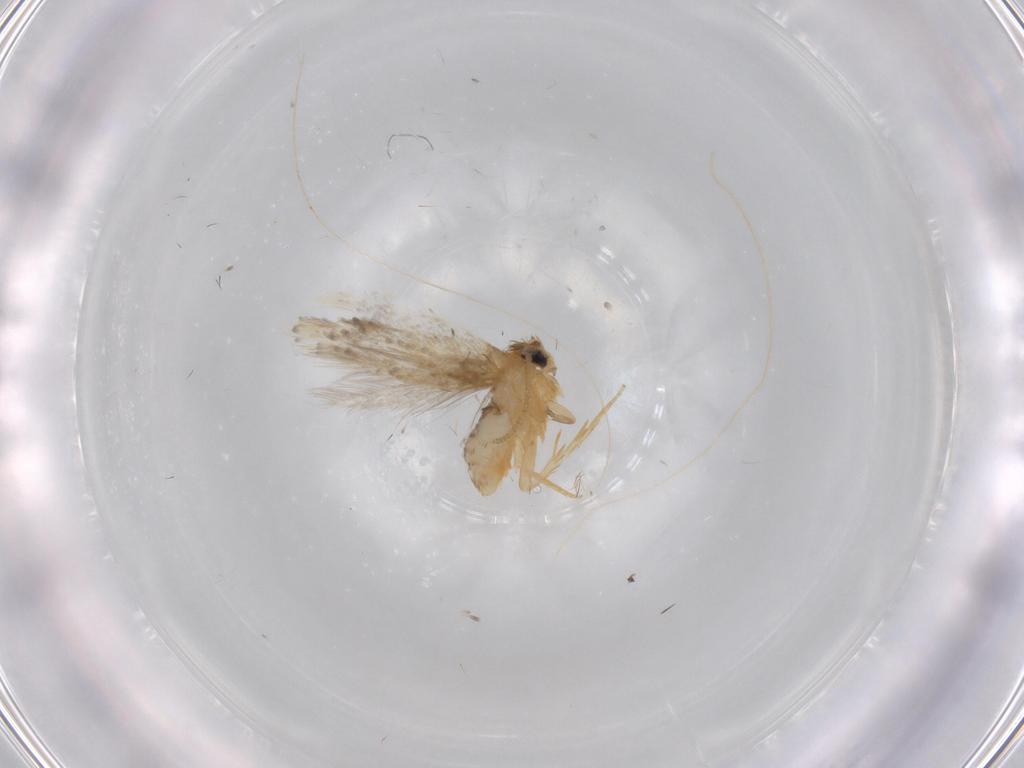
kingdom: Animalia
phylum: Arthropoda
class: Insecta
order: Lepidoptera
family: Nepticulidae
